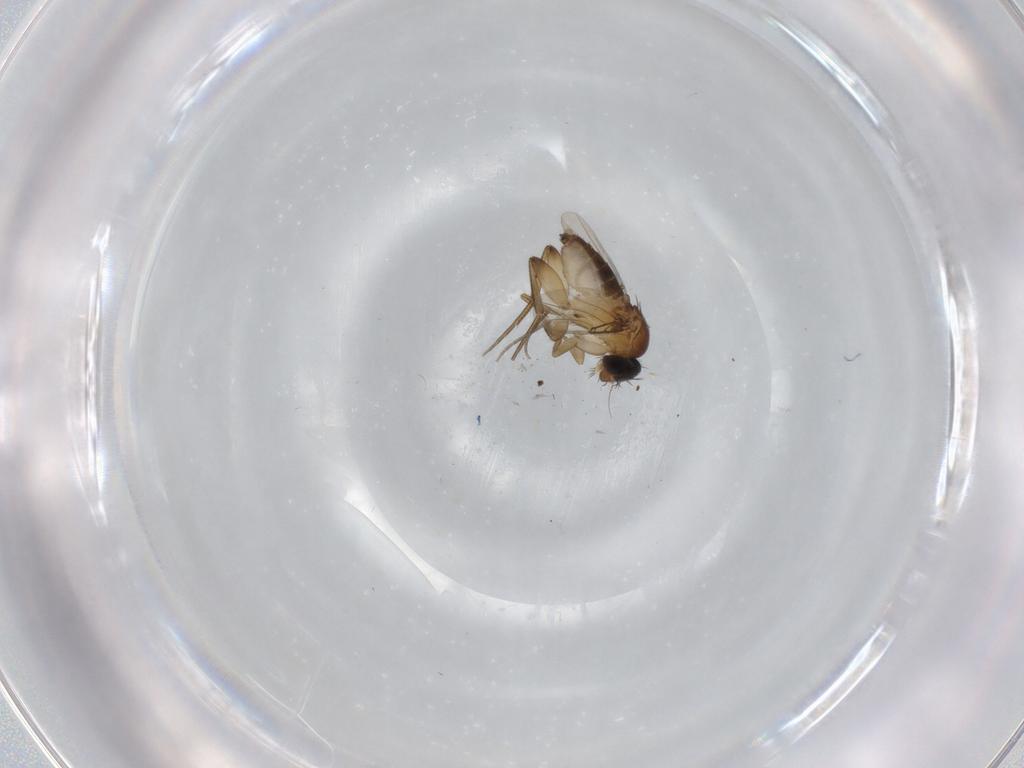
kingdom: Animalia
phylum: Arthropoda
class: Insecta
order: Diptera
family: Phoridae
